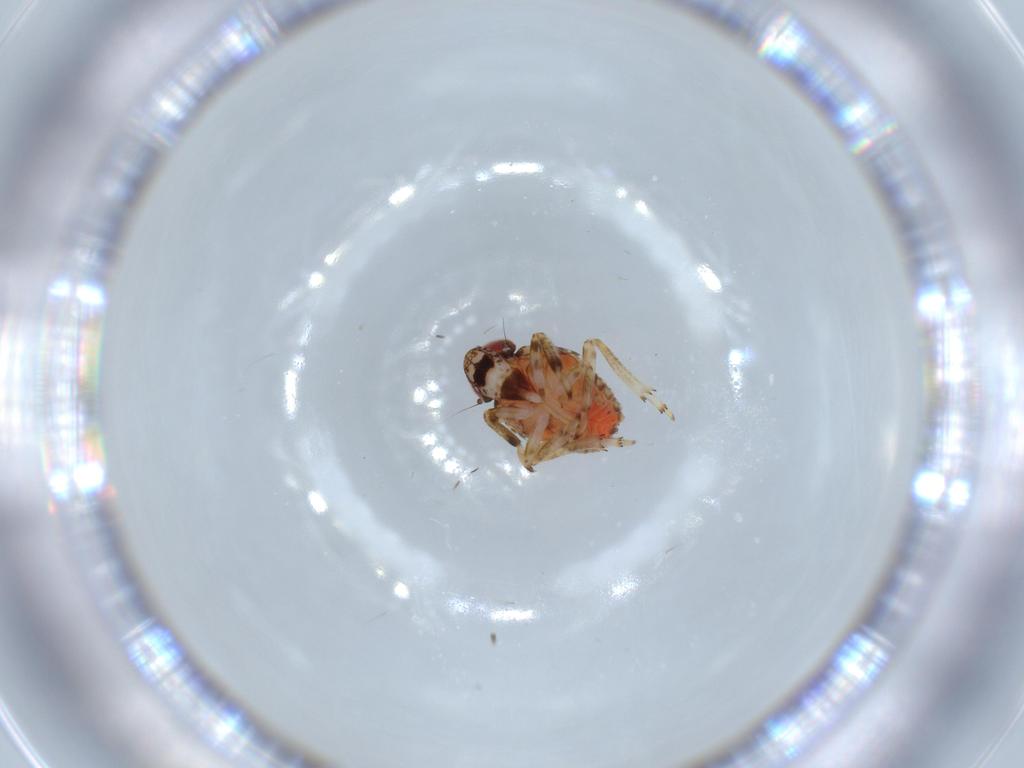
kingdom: Animalia
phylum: Arthropoda
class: Insecta
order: Hemiptera
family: Issidae
